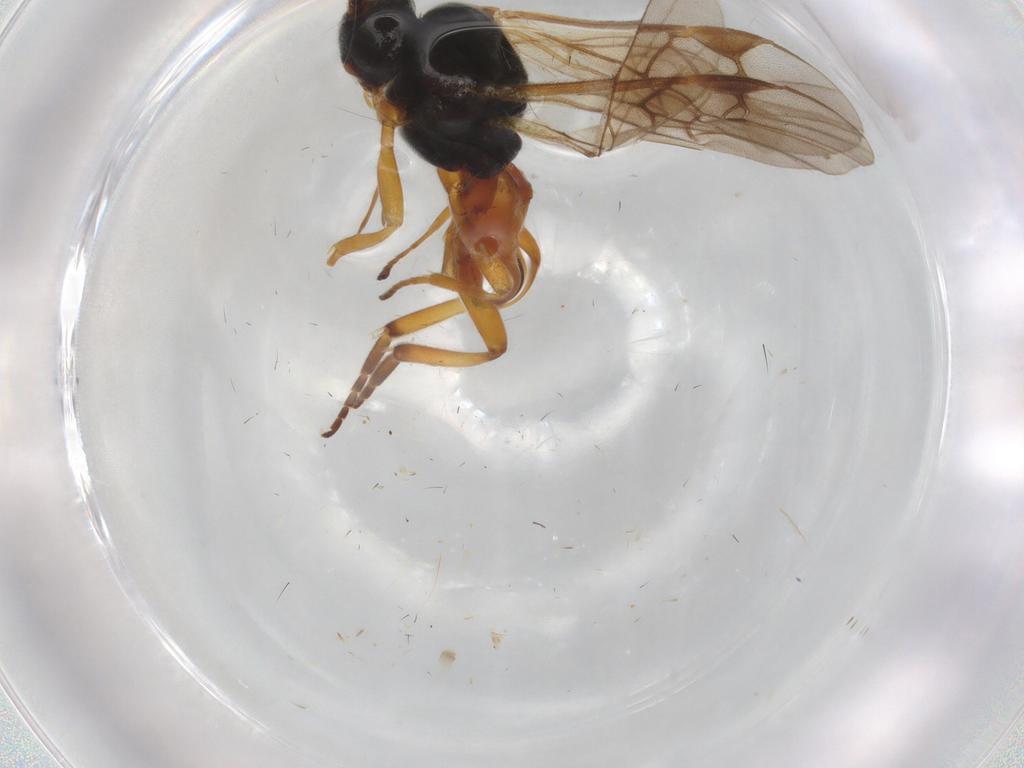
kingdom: Animalia
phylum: Arthropoda
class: Insecta
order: Hymenoptera
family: Braconidae
